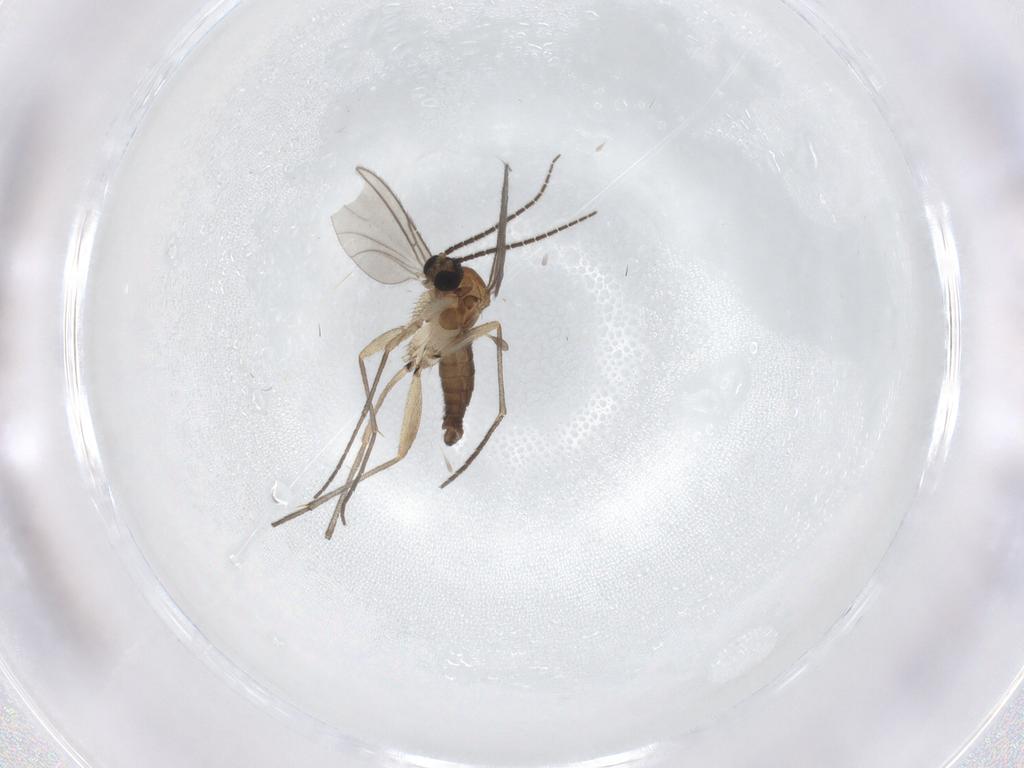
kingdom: Animalia
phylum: Arthropoda
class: Insecta
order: Diptera
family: Sciaridae
